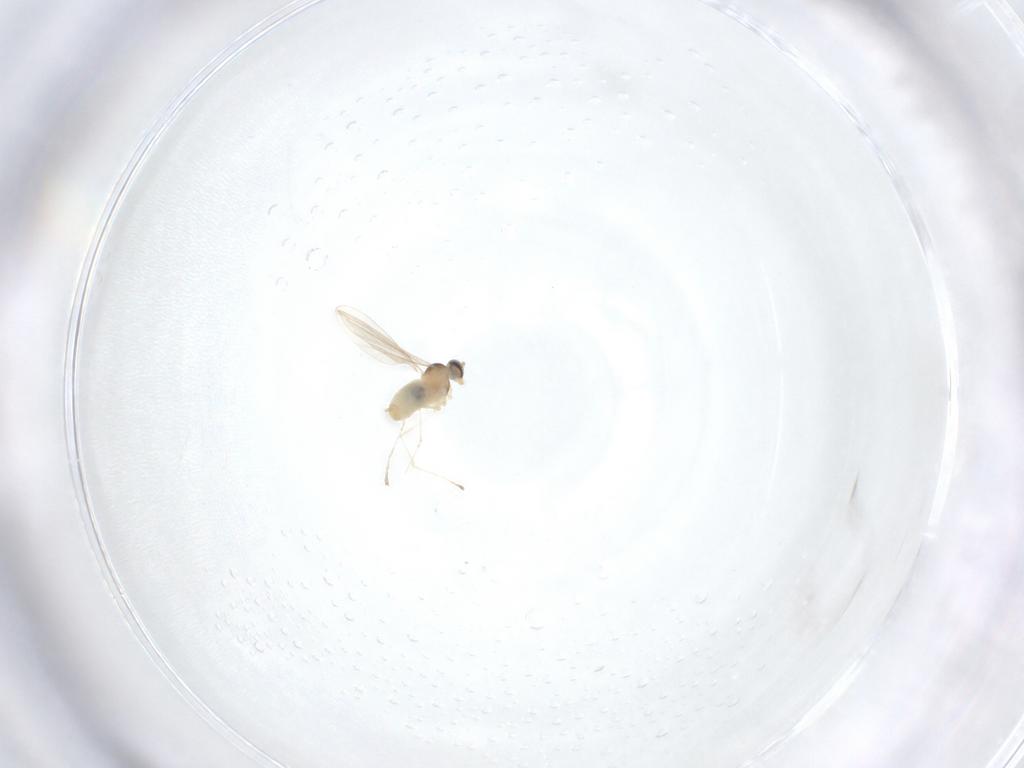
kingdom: Animalia
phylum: Arthropoda
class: Insecta
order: Diptera
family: Cecidomyiidae
